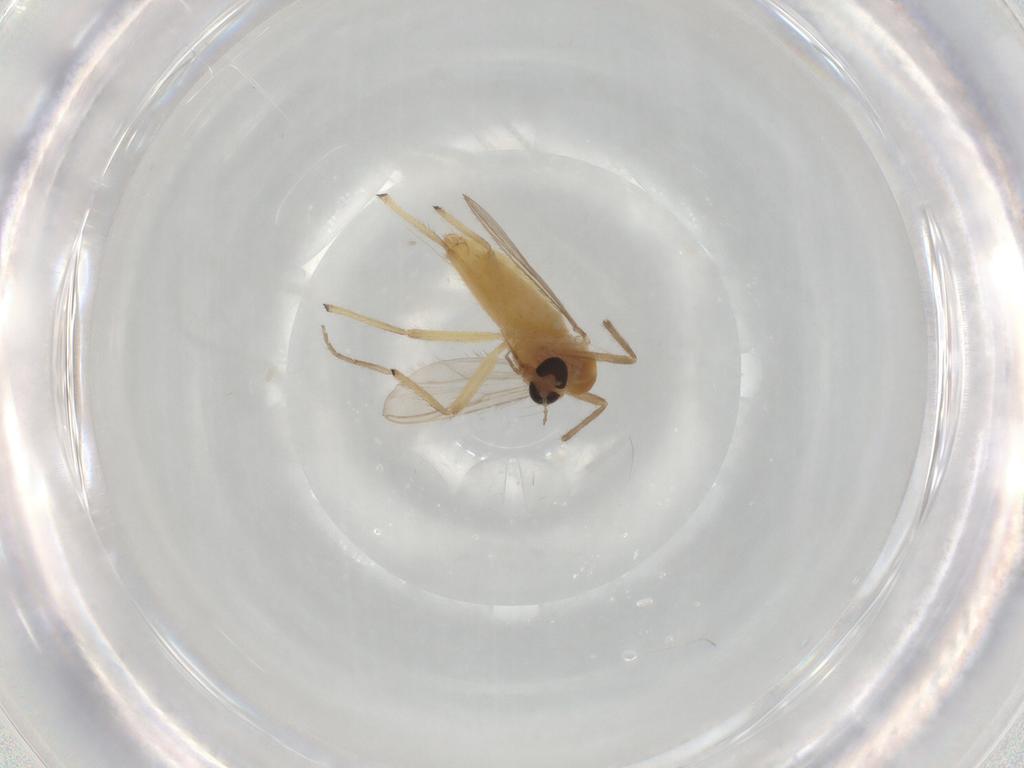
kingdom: Animalia
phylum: Arthropoda
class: Insecta
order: Diptera
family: Chironomidae
